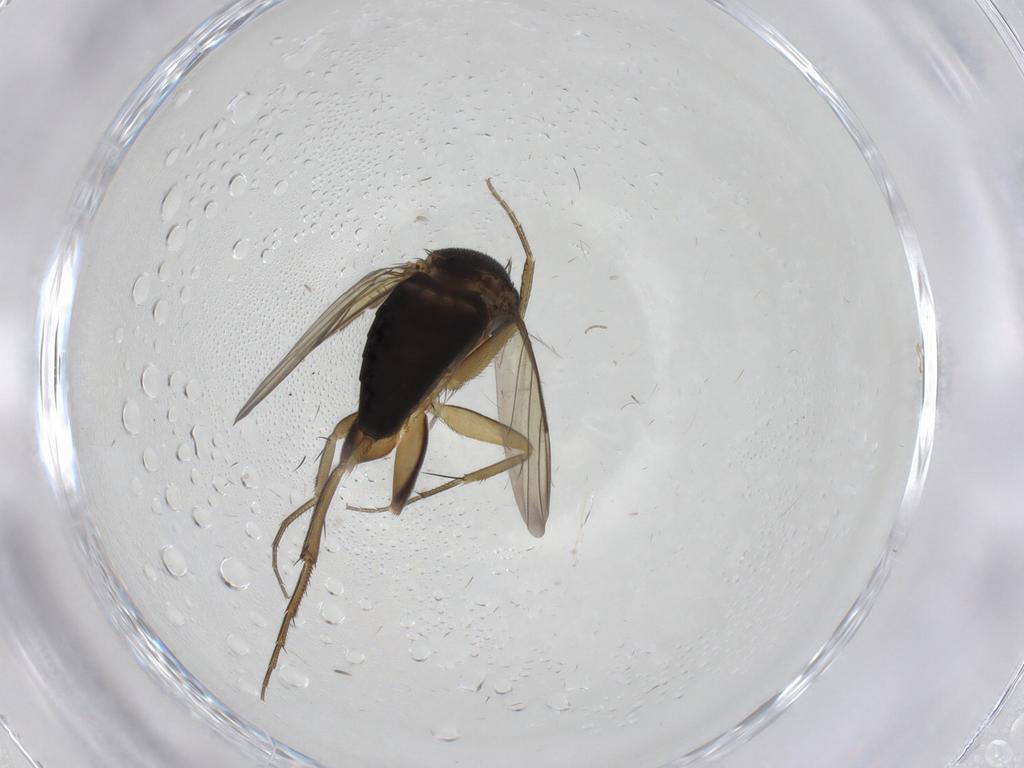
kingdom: Animalia
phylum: Arthropoda
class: Insecta
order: Diptera
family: Phoridae
